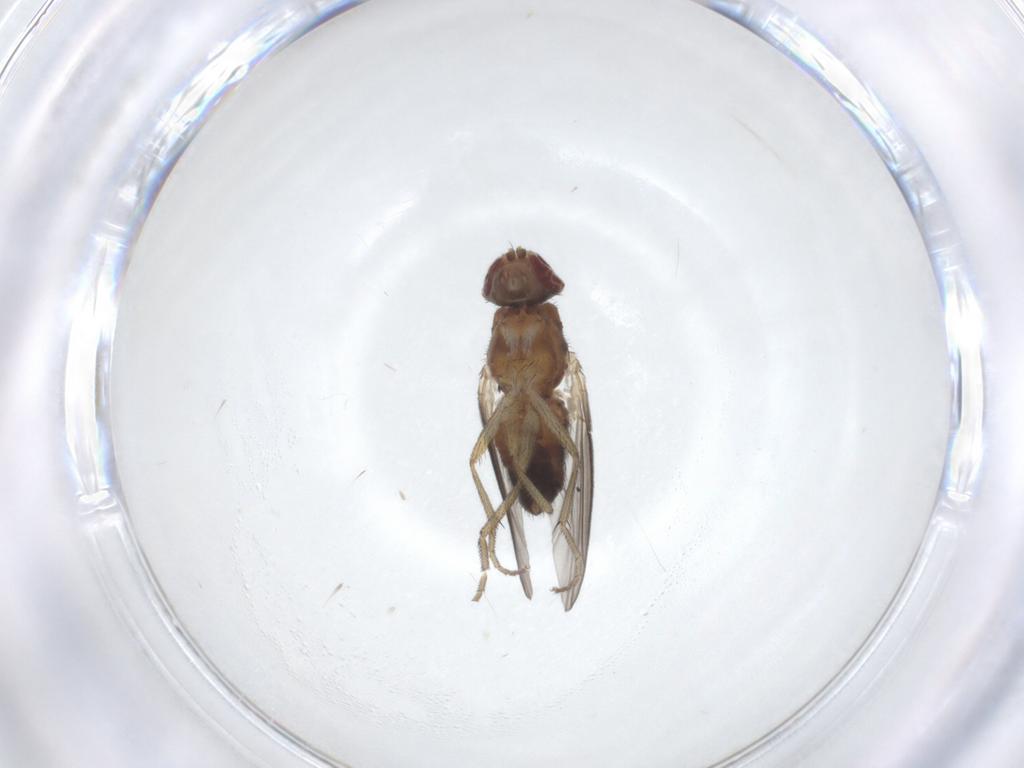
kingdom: Animalia
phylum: Arthropoda
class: Insecta
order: Diptera
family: Heleomyzidae
